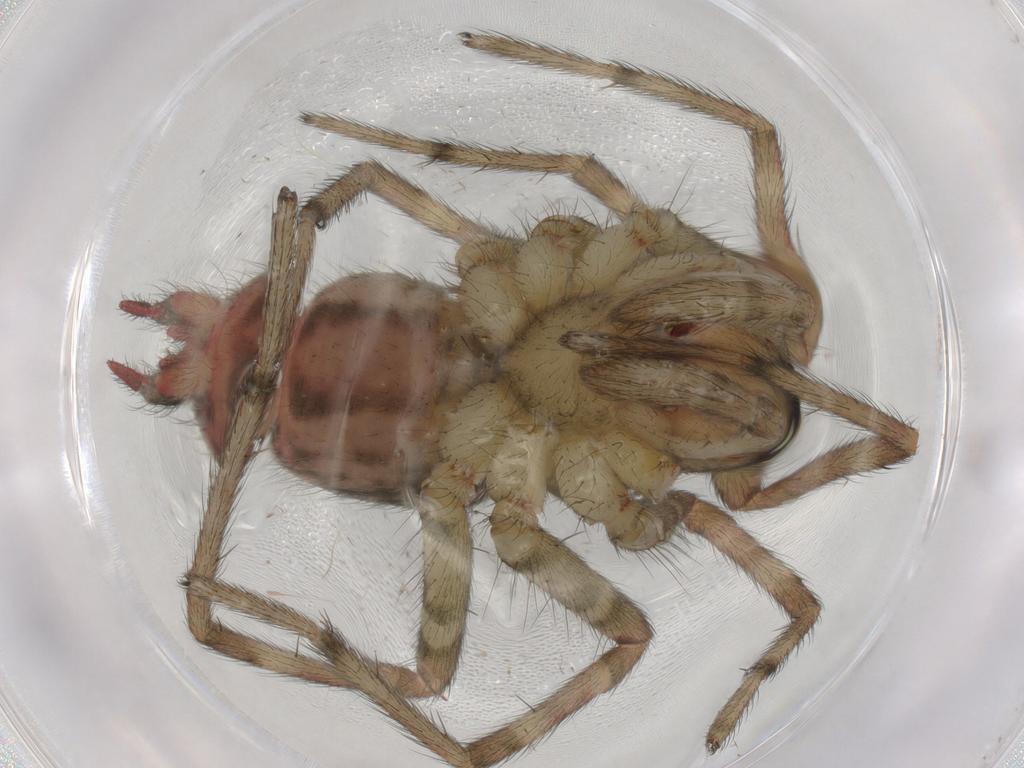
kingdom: Animalia
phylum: Arthropoda
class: Arachnida
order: Araneae
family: Agelenidae
